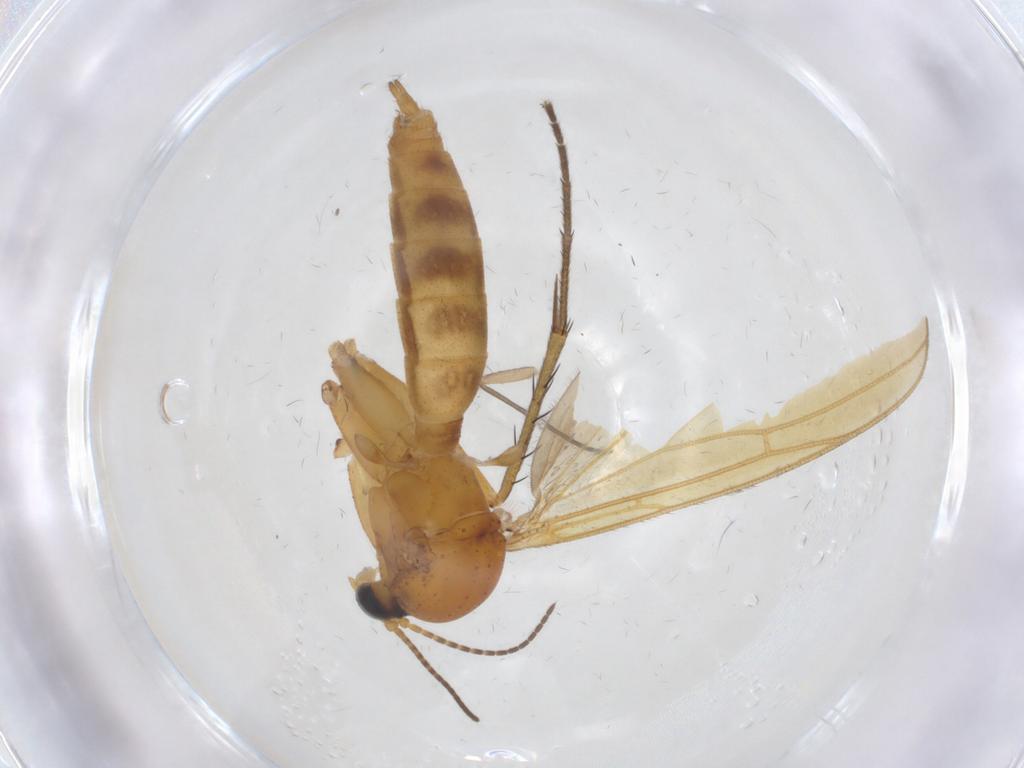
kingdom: Animalia
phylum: Arthropoda
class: Insecta
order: Diptera
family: Mycetophilidae
